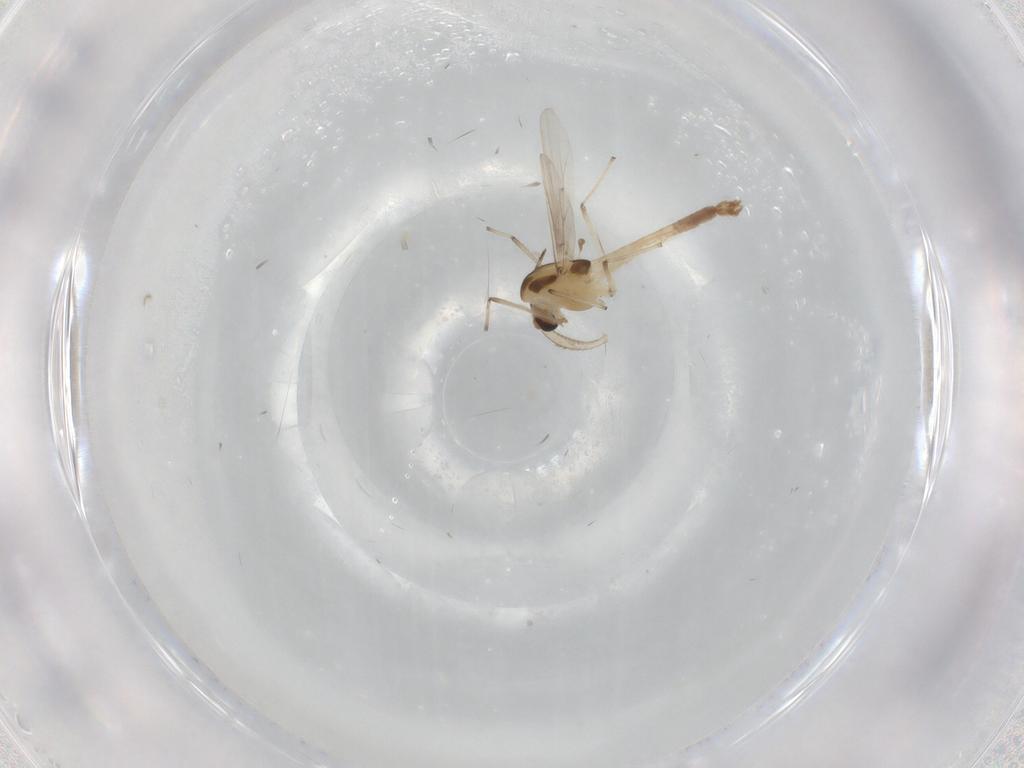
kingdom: Animalia
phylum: Arthropoda
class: Insecta
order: Diptera
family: Chironomidae
